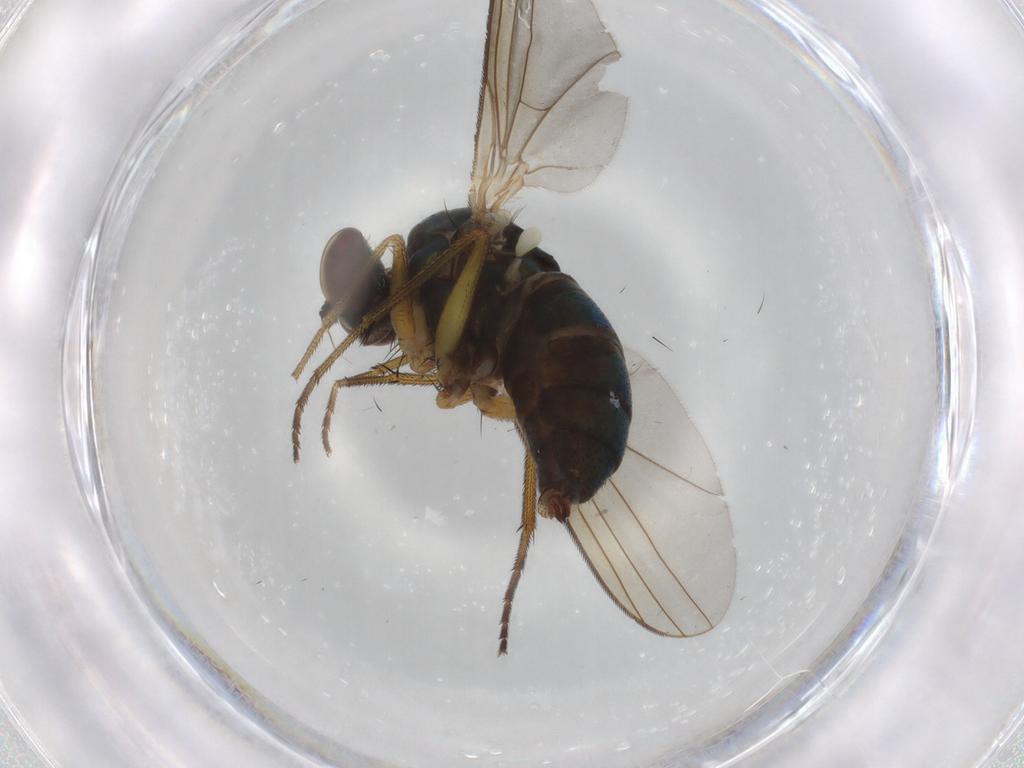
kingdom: Animalia
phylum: Arthropoda
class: Insecta
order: Diptera
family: Dolichopodidae
